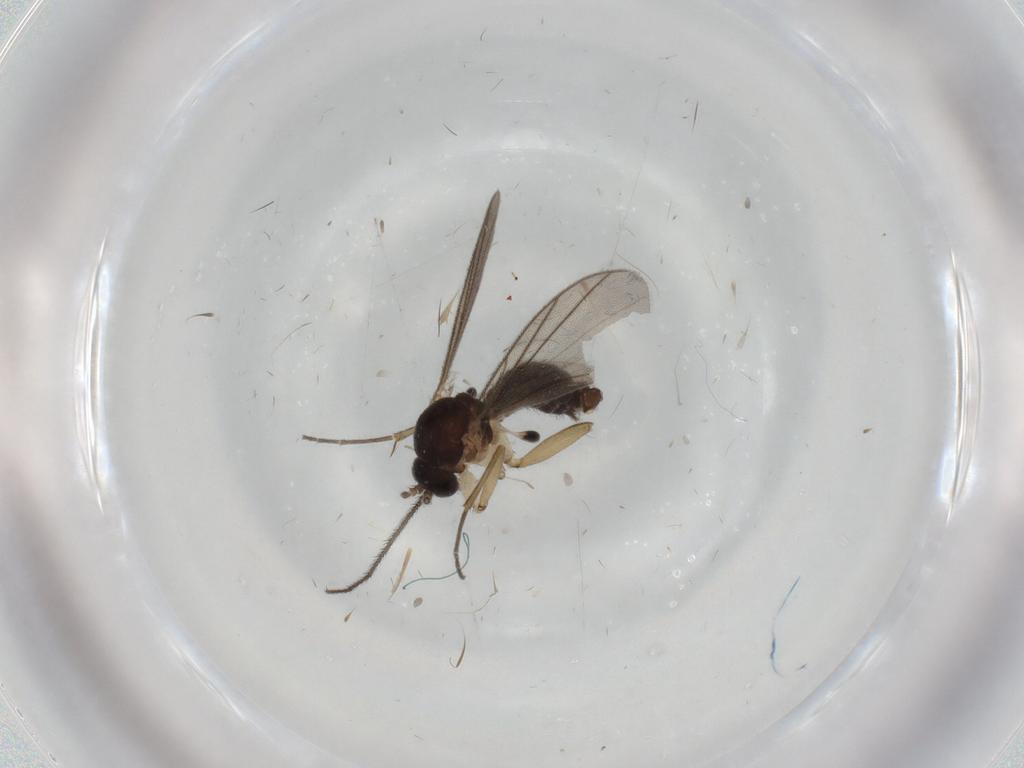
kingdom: Animalia
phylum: Arthropoda
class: Insecta
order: Diptera
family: Mycetophilidae
